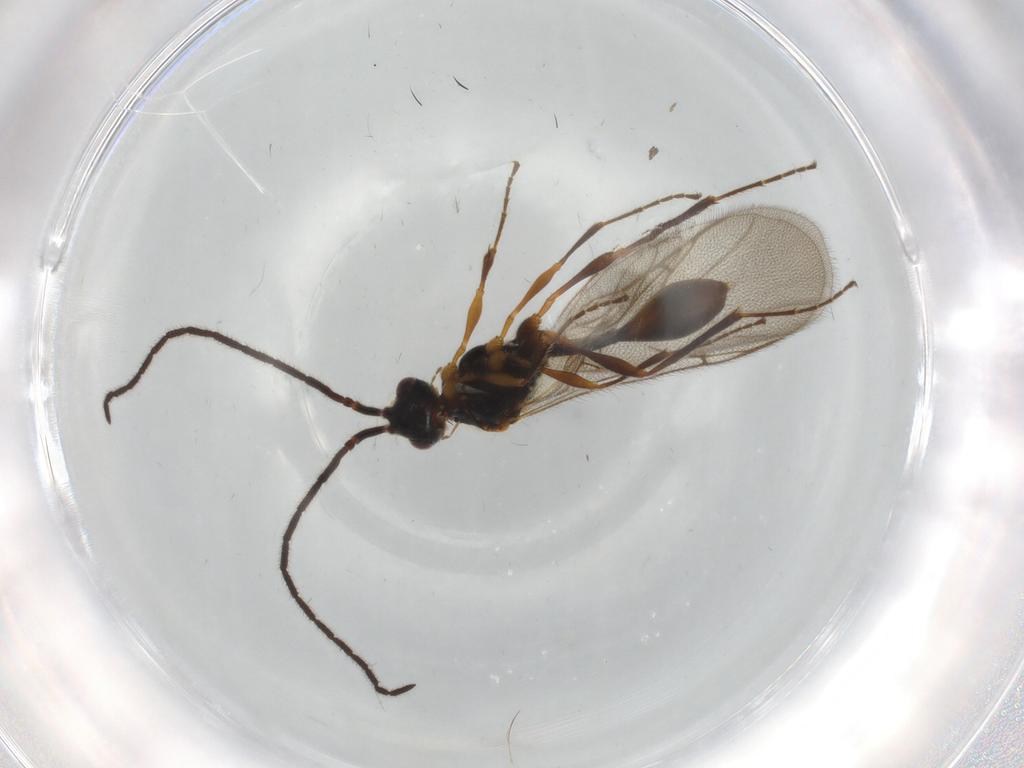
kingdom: Animalia
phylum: Arthropoda
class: Insecta
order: Hymenoptera
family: Diapriidae
